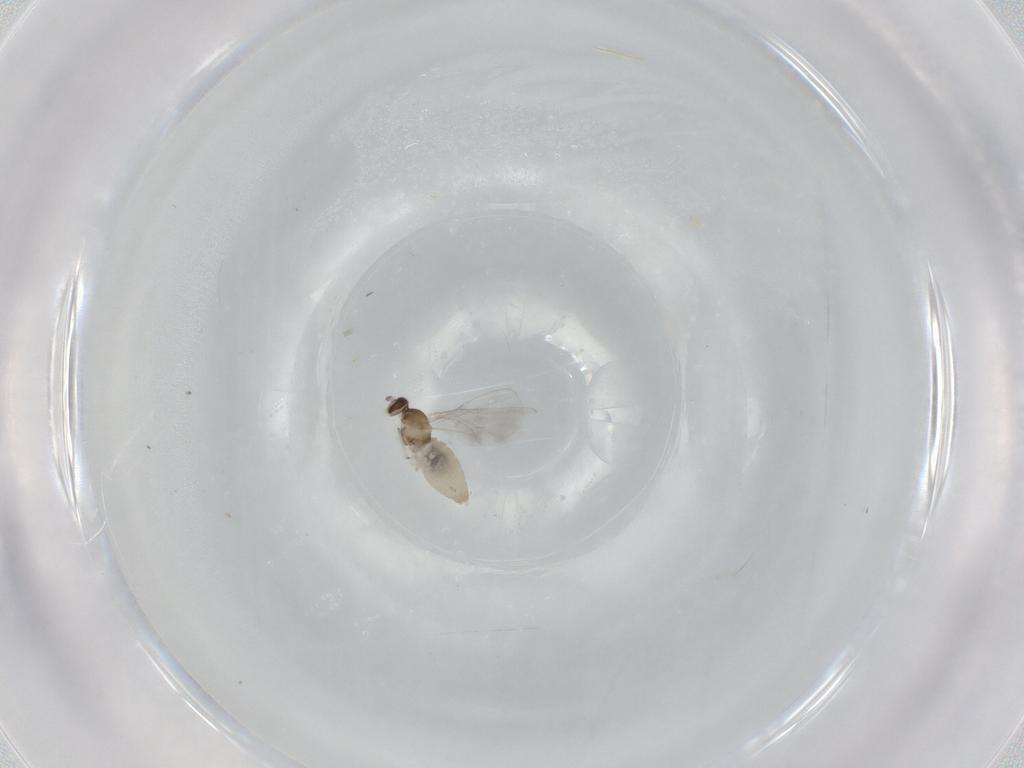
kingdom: Animalia
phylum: Arthropoda
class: Insecta
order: Diptera
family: Cecidomyiidae
